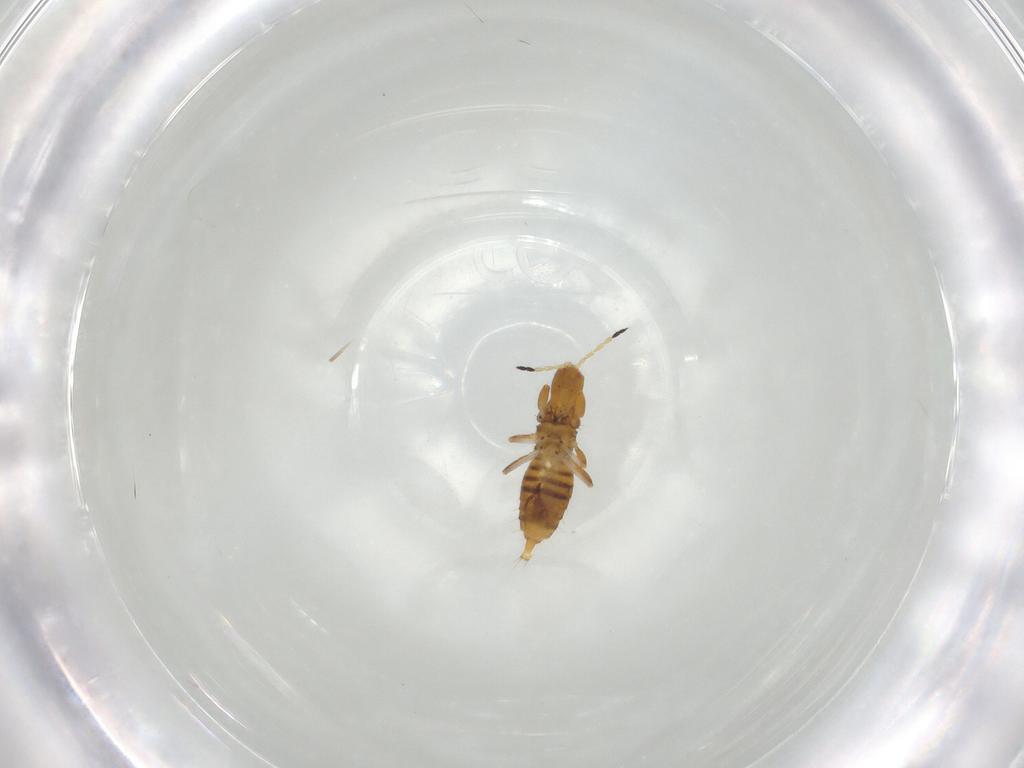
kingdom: Animalia
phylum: Arthropoda
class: Insecta
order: Thysanoptera
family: Phlaeothripidae
